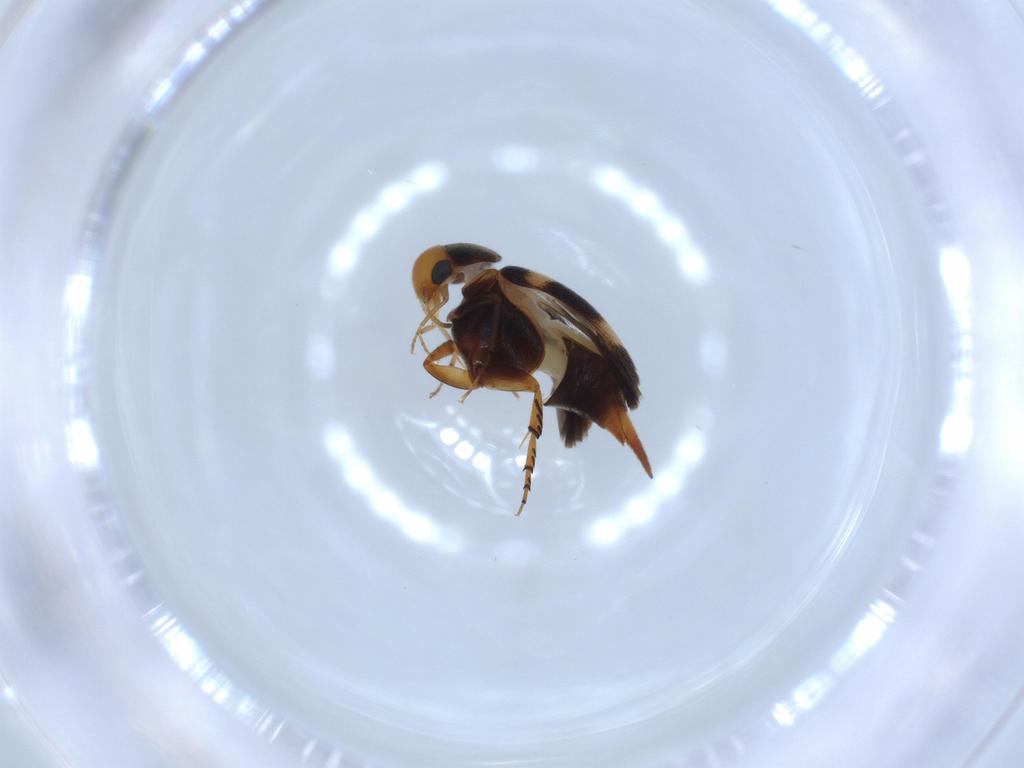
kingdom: Animalia
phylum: Arthropoda
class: Insecta
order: Coleoptera
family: Mordellidae
